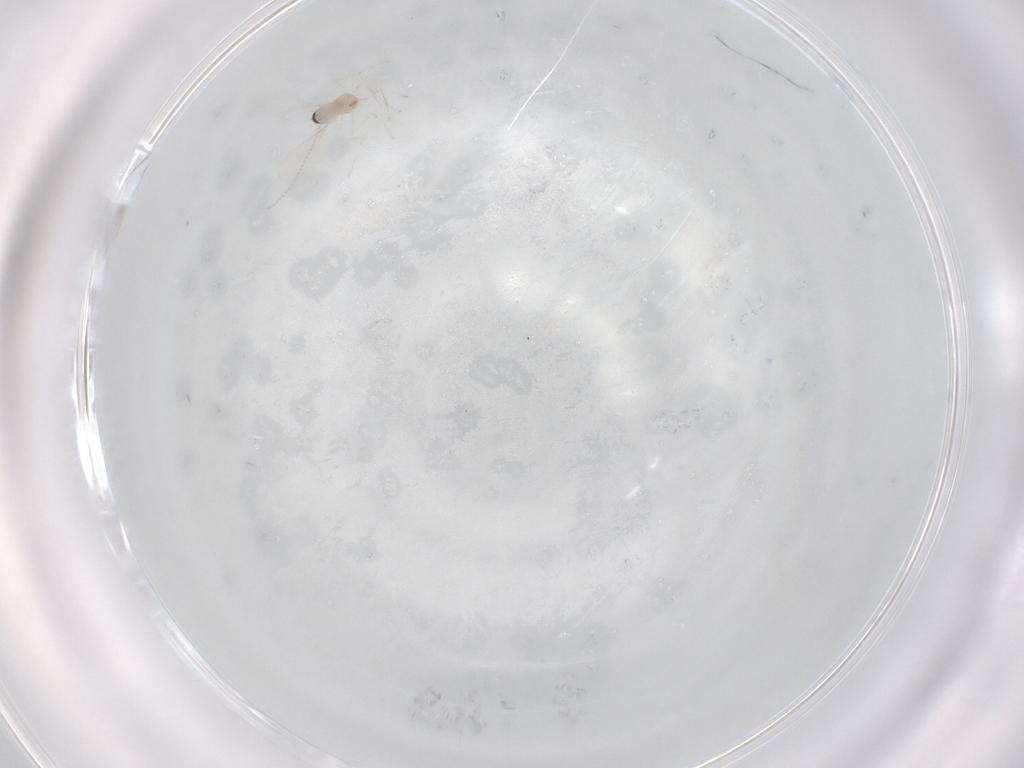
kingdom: Animalia
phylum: Arthropoda
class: Insecta
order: Diptera
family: Cecidomyiidae
